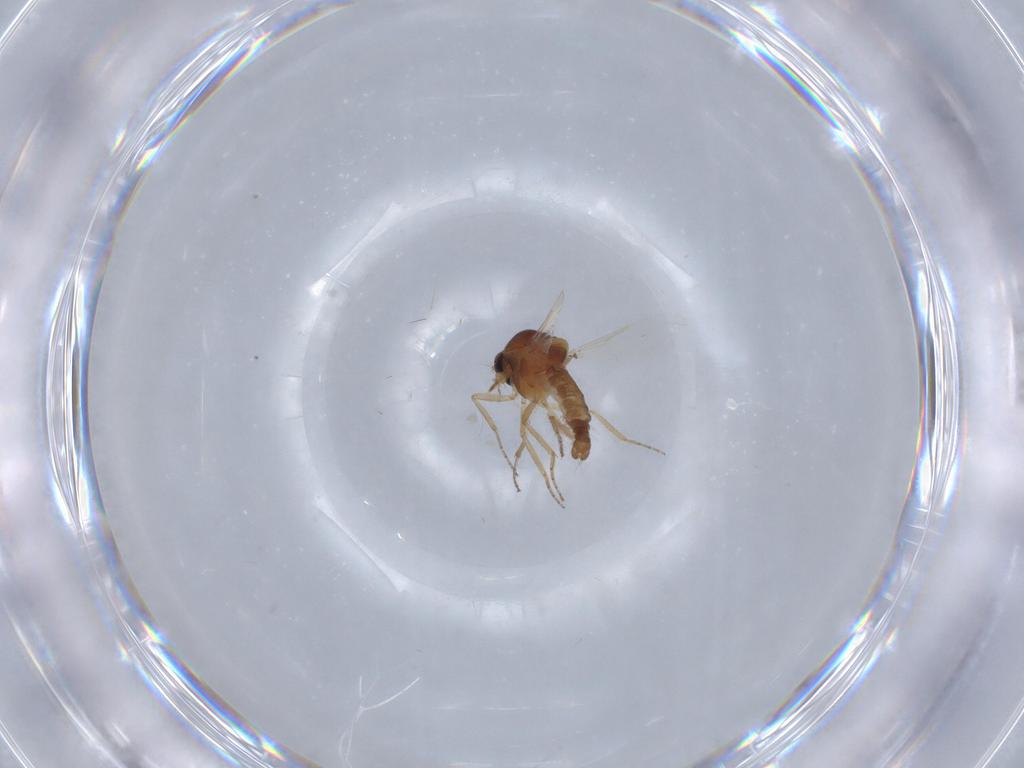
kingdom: Animalia
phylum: Arthropoda
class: Insecta
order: Diptera
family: Ceratopogonidae
